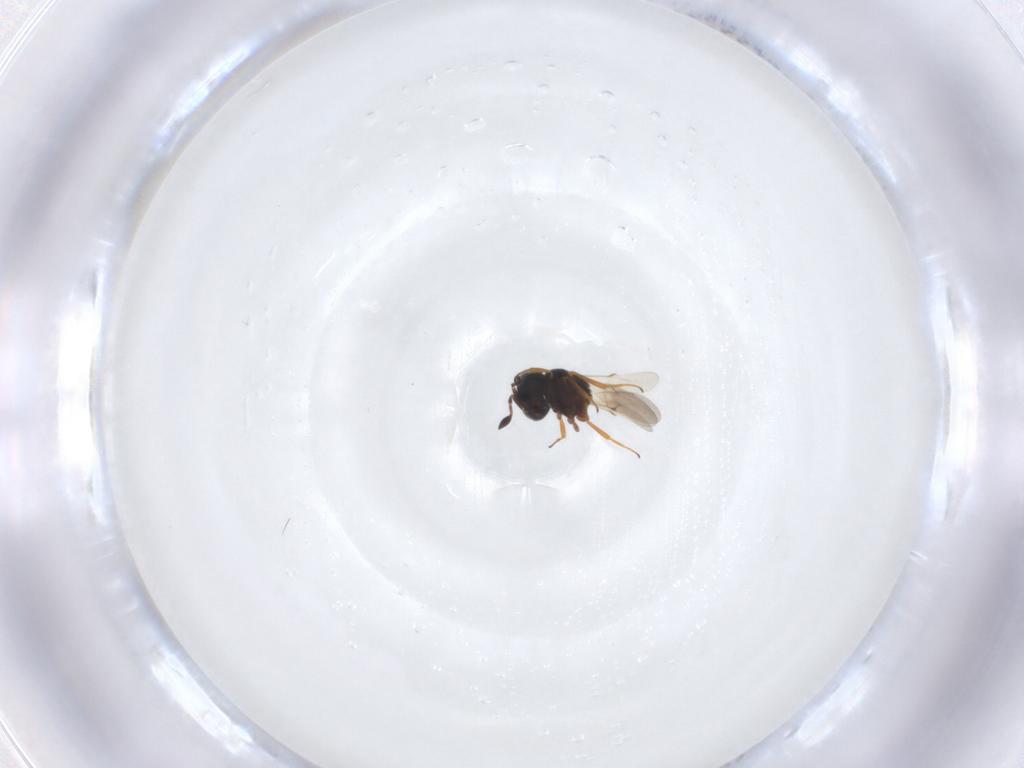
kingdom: Animalia
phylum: Arthropoda
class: Insecta
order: Hymenoptera
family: Scelionidae
